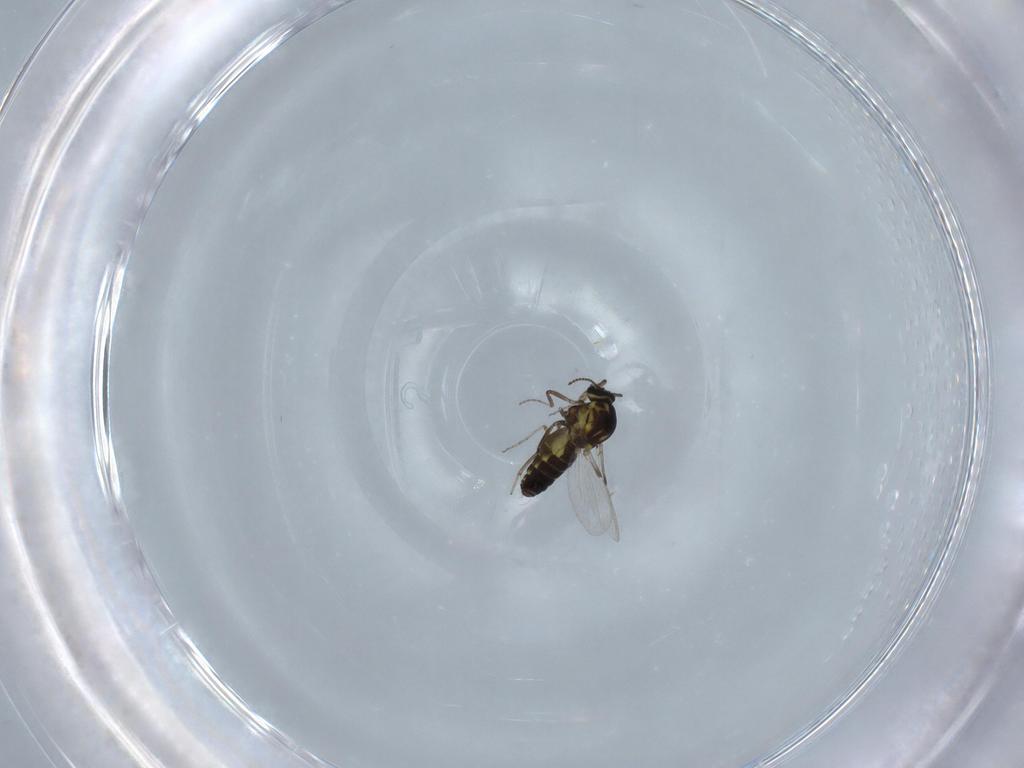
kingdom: Animalia
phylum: Arthropoda
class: Insecta
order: Diptera
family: Ceratopogonidae
